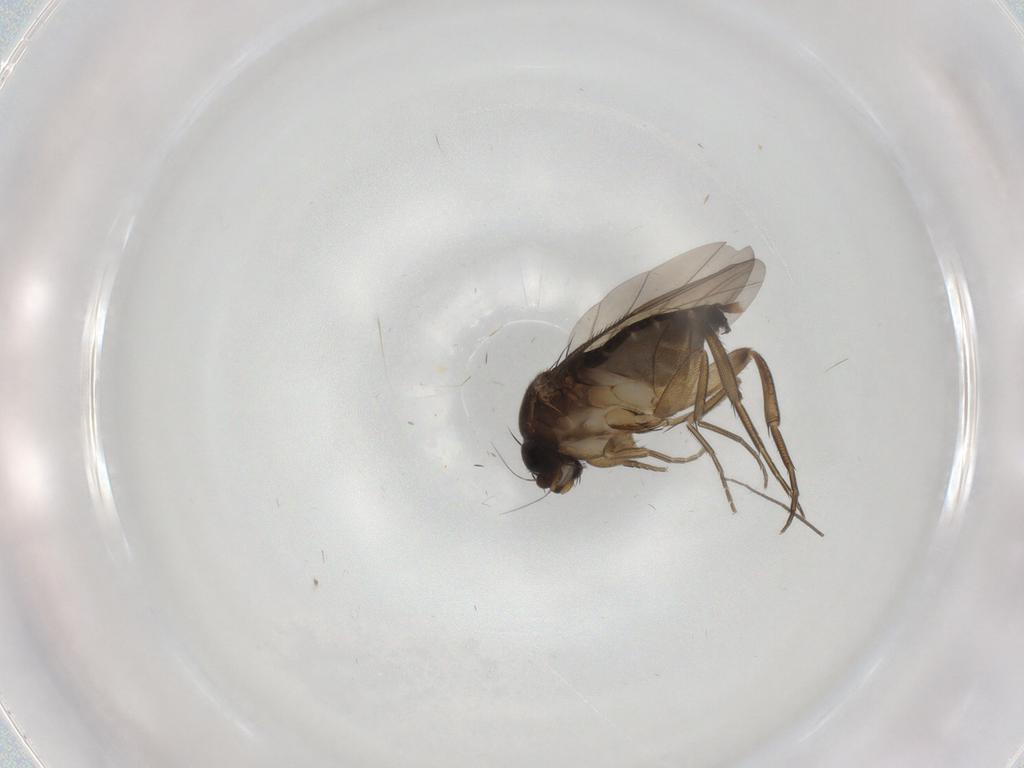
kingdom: Animalia
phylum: Arthropoda
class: Insecta
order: Diptera
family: Phoridae
